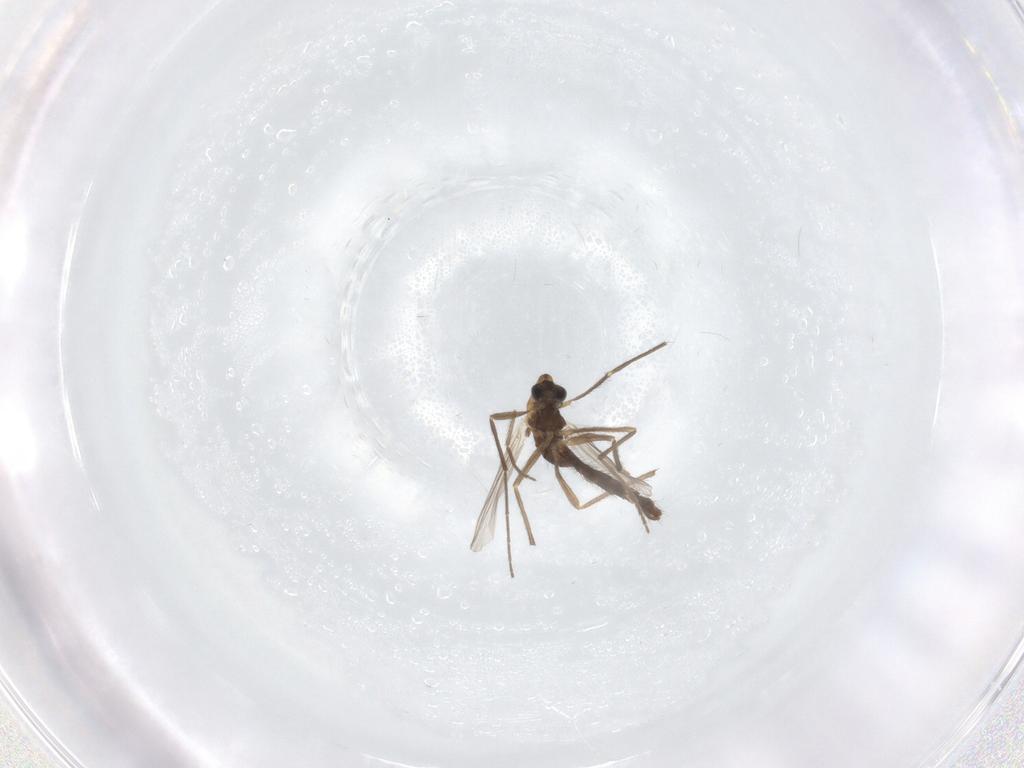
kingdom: Animalia
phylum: Arthropoda
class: Insecta
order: Diptera
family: Chironomidae
